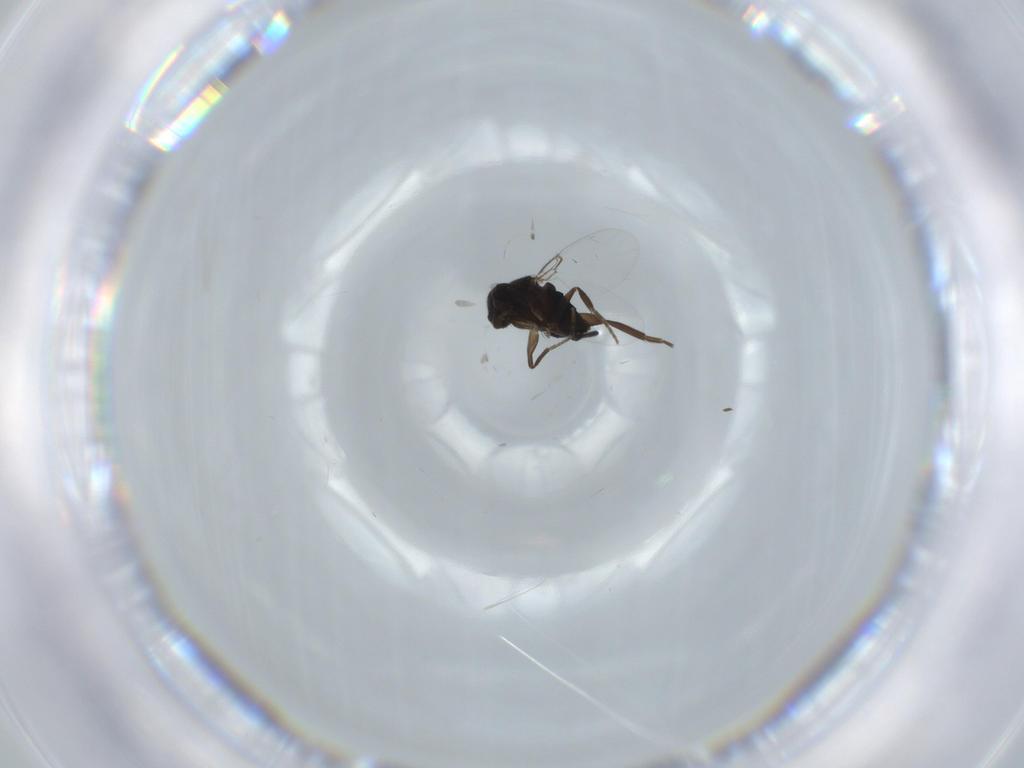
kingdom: Animalia
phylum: Arthropoda
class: Insecta
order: Diptera
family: Phoridae
